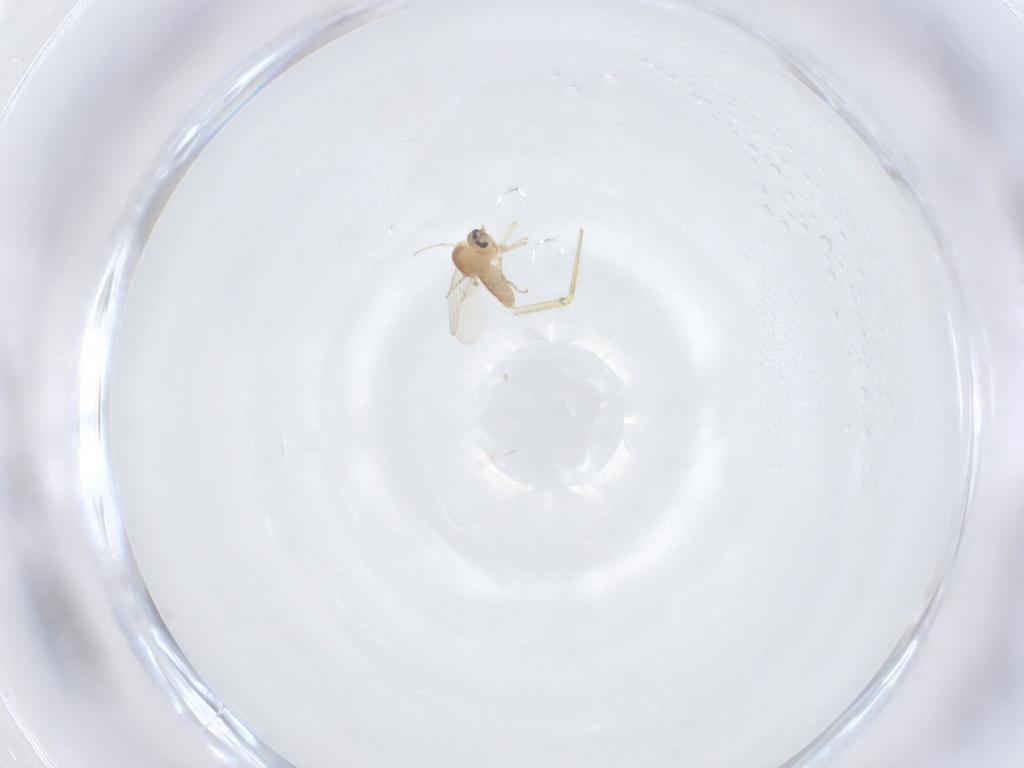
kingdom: Animalia
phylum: Arthropoda
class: Insecta
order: Diptera
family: Ceratopogonidae
